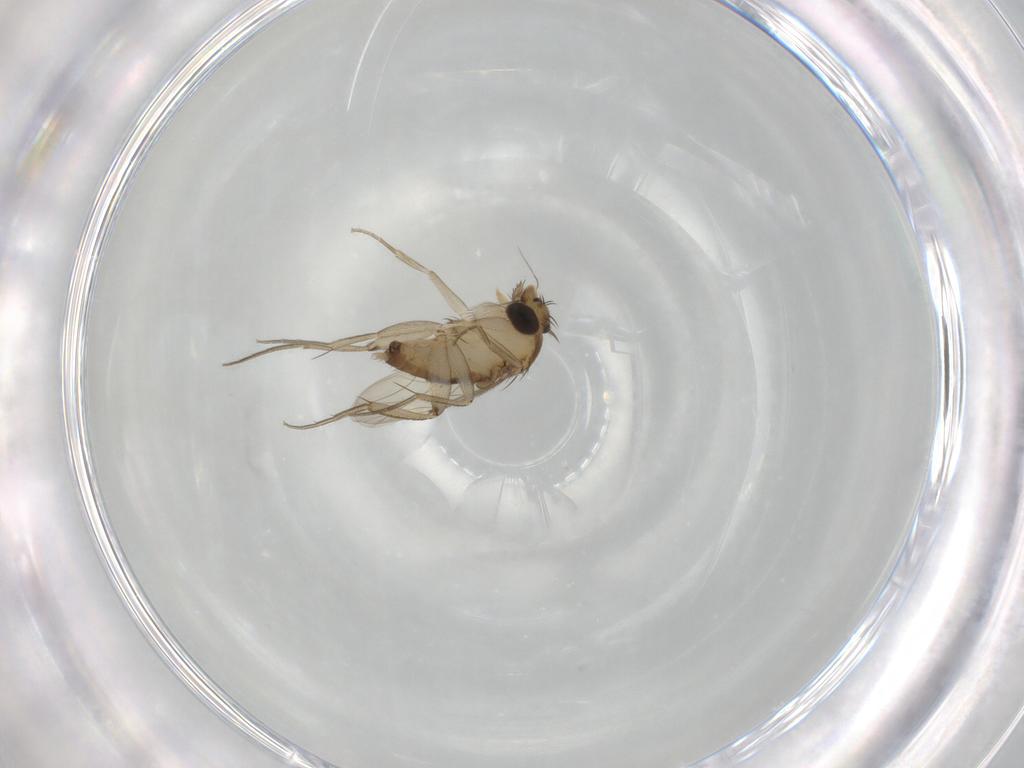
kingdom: Animalia
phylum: Arthropoda
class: Insecta
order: Diptera
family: Phoridae
